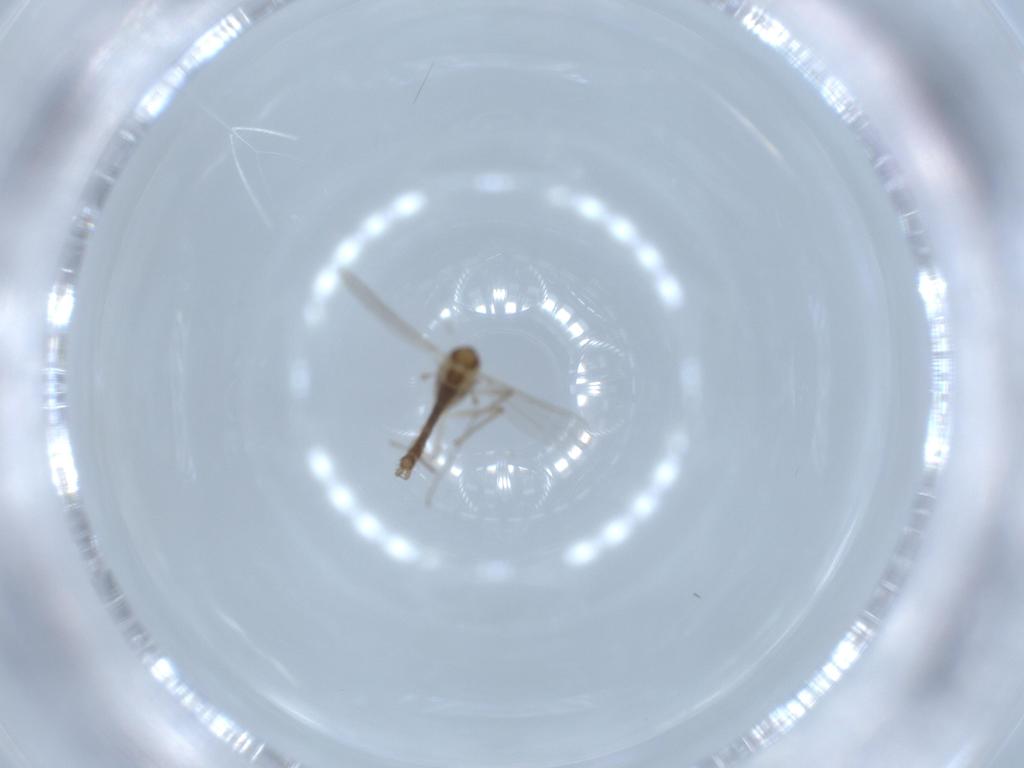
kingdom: Animalia
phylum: Arthropoda
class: Insecta
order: Diptera
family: Chironomidae
